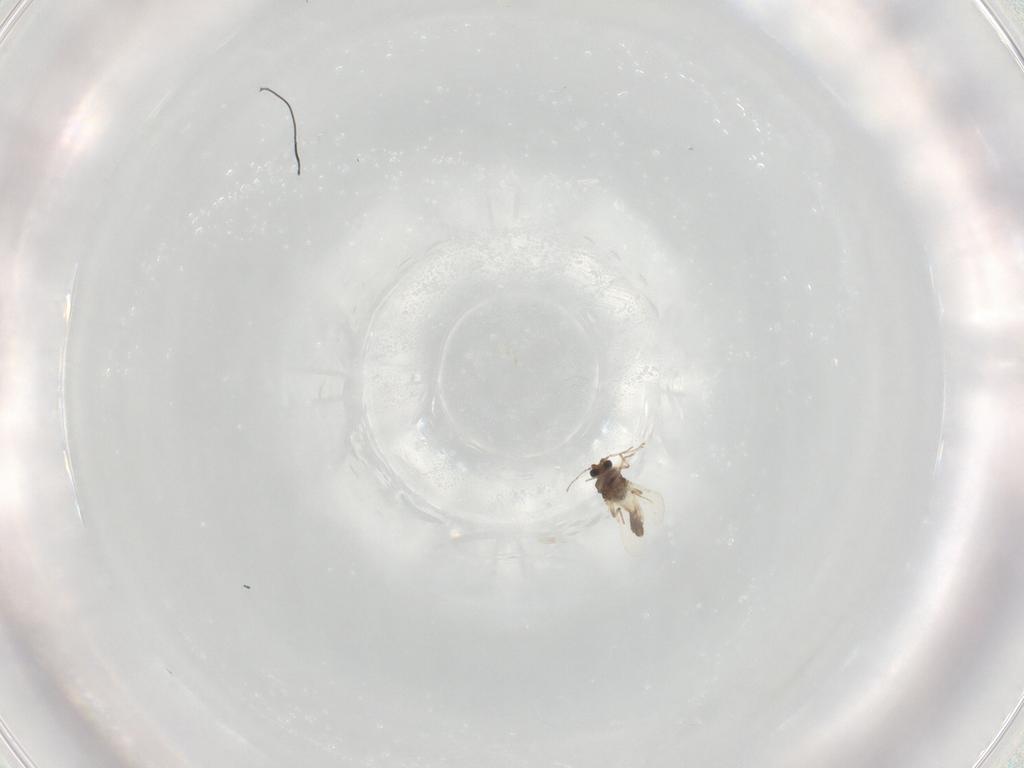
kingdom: Animalia
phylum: Arthropoda
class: Insecta
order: Diptera
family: Ceratopogonidae
